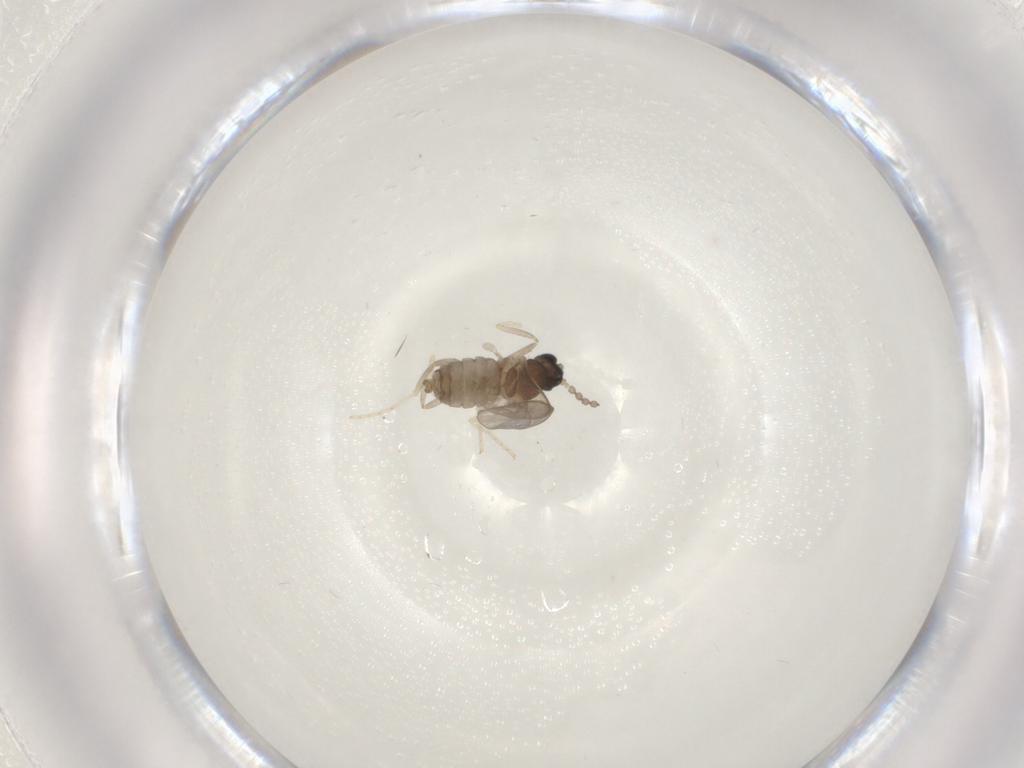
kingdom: Animalia
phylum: Arthropoda
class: Insecta
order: Diptera
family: Cecidomyiidae
